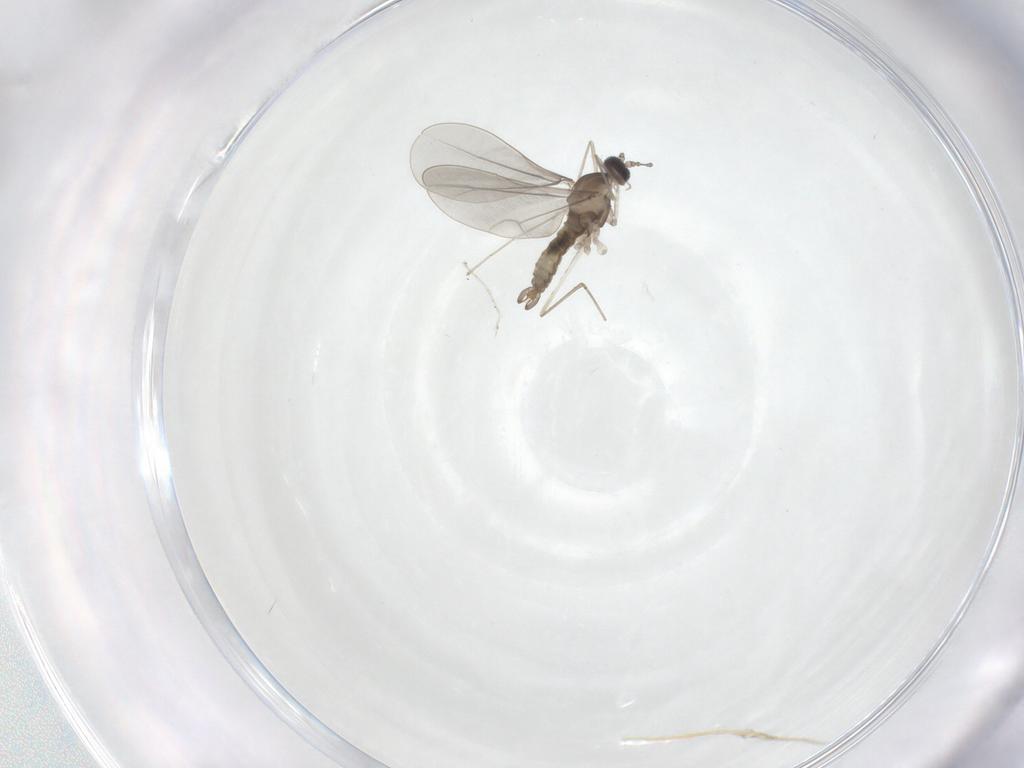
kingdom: Animalia
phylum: Arthropoda
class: Insecta
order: Diptera
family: Cecidomyiidae
